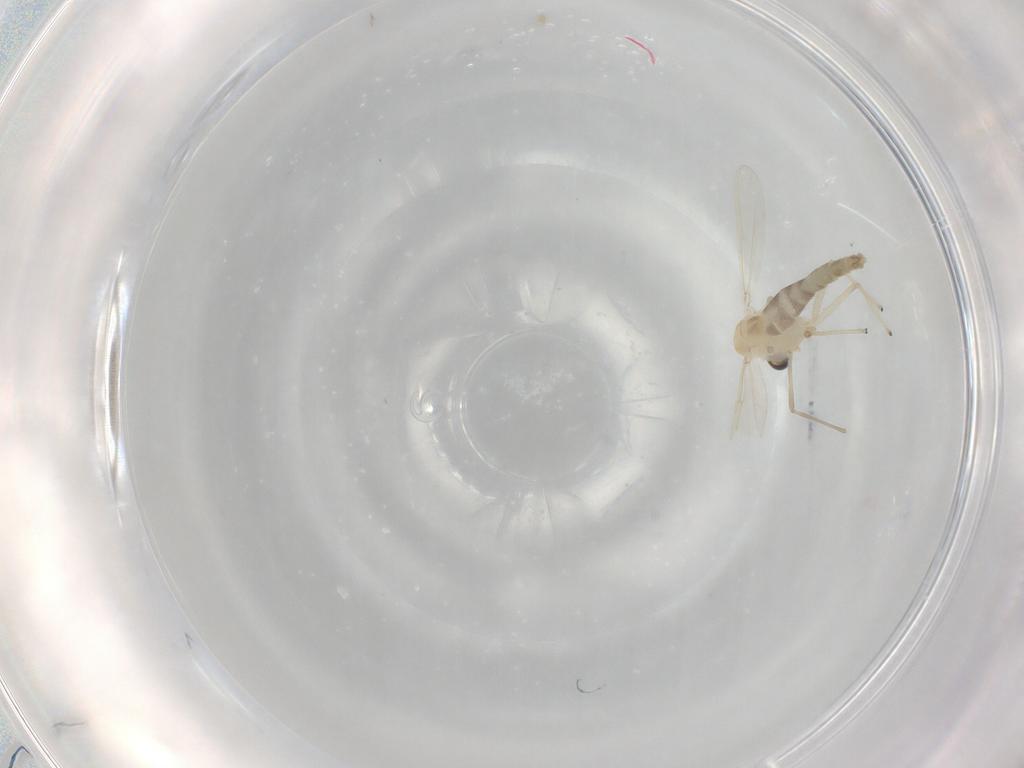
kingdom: Animalia
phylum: Arthropoda
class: Insecta
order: Diptera
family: Chironomidae
